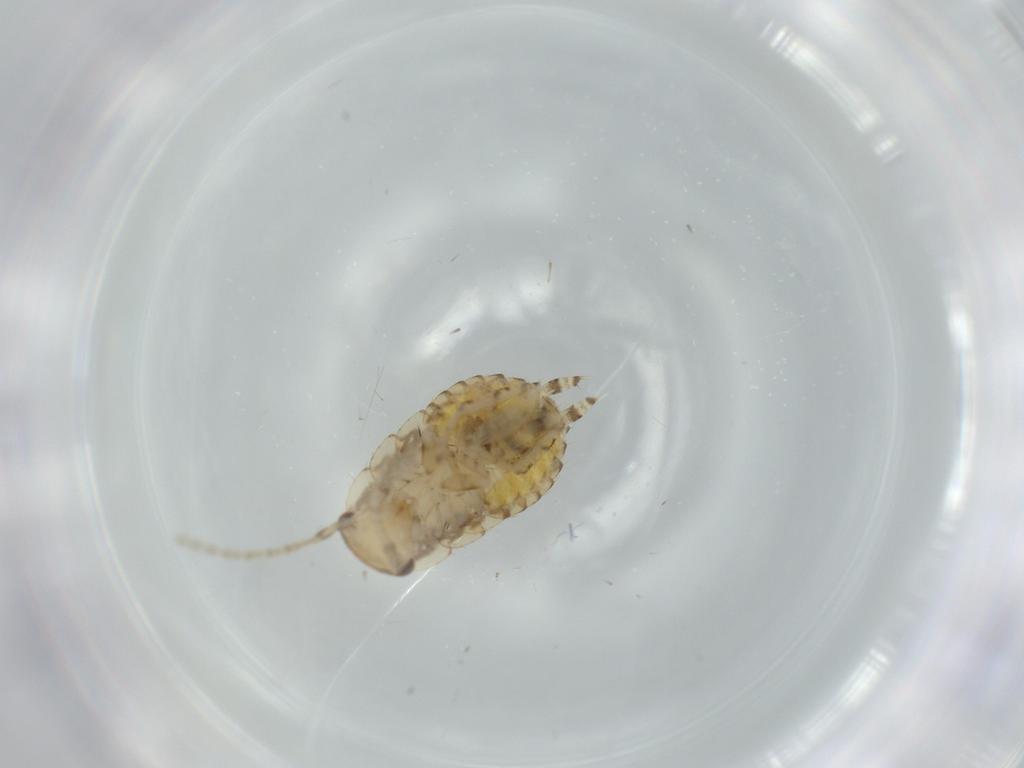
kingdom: Animalia
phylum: Arthropoda
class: Insecta
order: Blattodea
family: Ectobiidae
